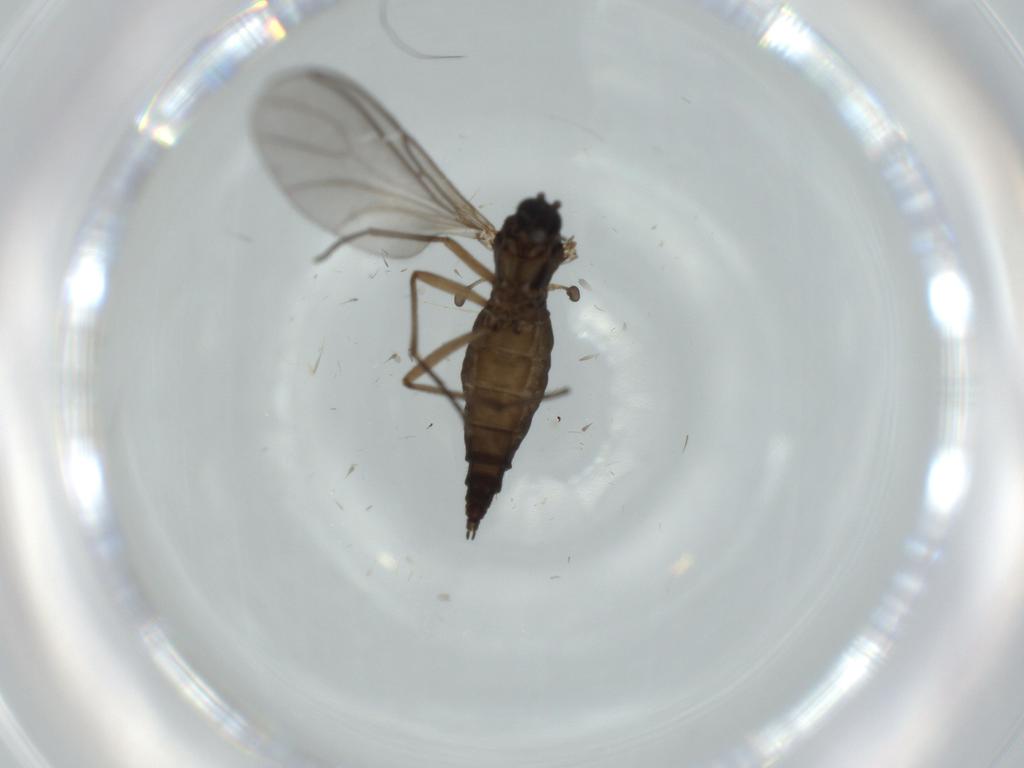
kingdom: Animalia
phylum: Arthropoda
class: Insecta
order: Diptera
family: Sciaridae
